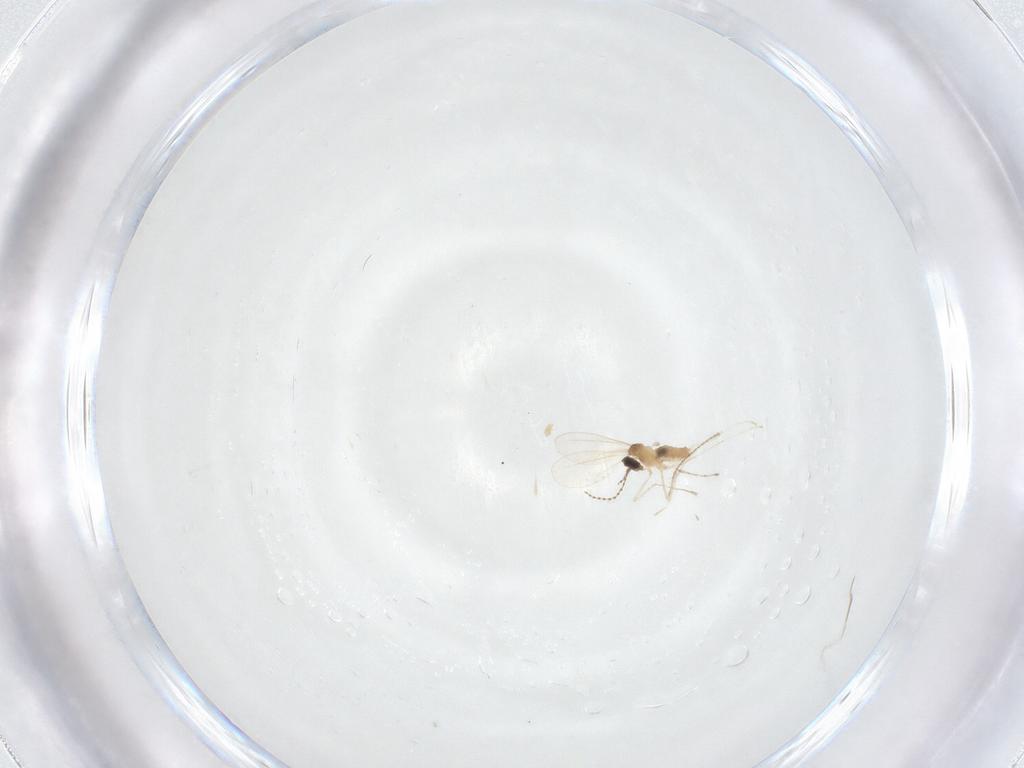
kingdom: Animalia
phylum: Arthropoda
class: Insecta
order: Diptera
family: Ceratopogonidae
